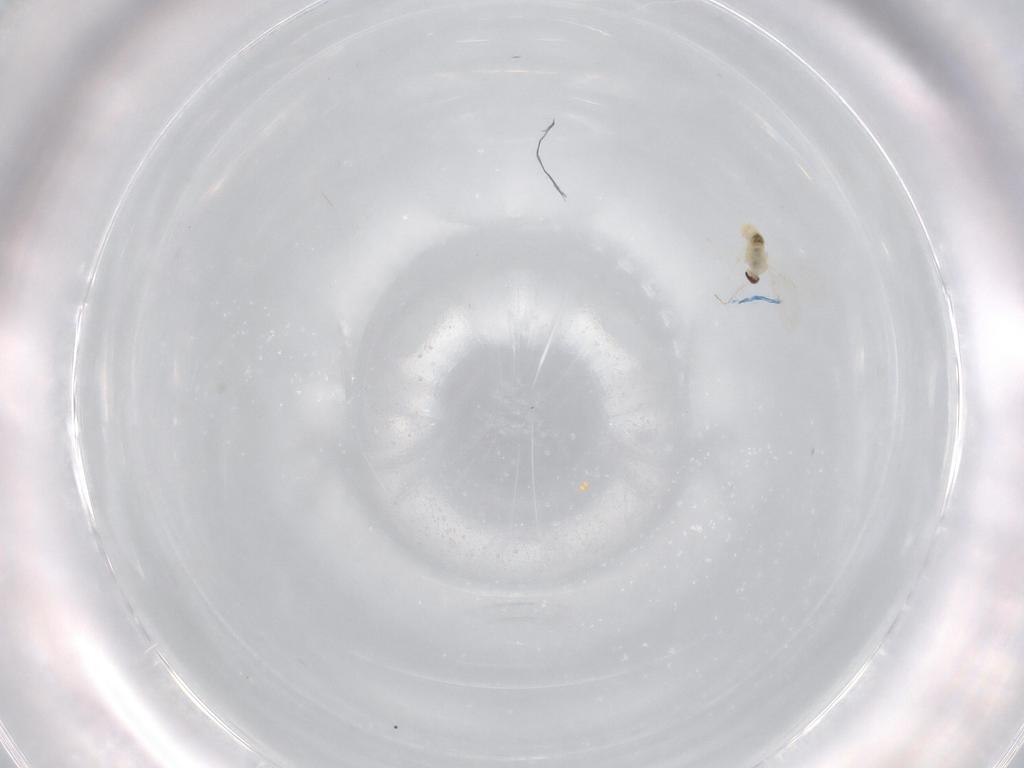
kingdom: Animalia
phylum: Arthropoda
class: Insecta
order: Diptera
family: Cecidomyiidae
